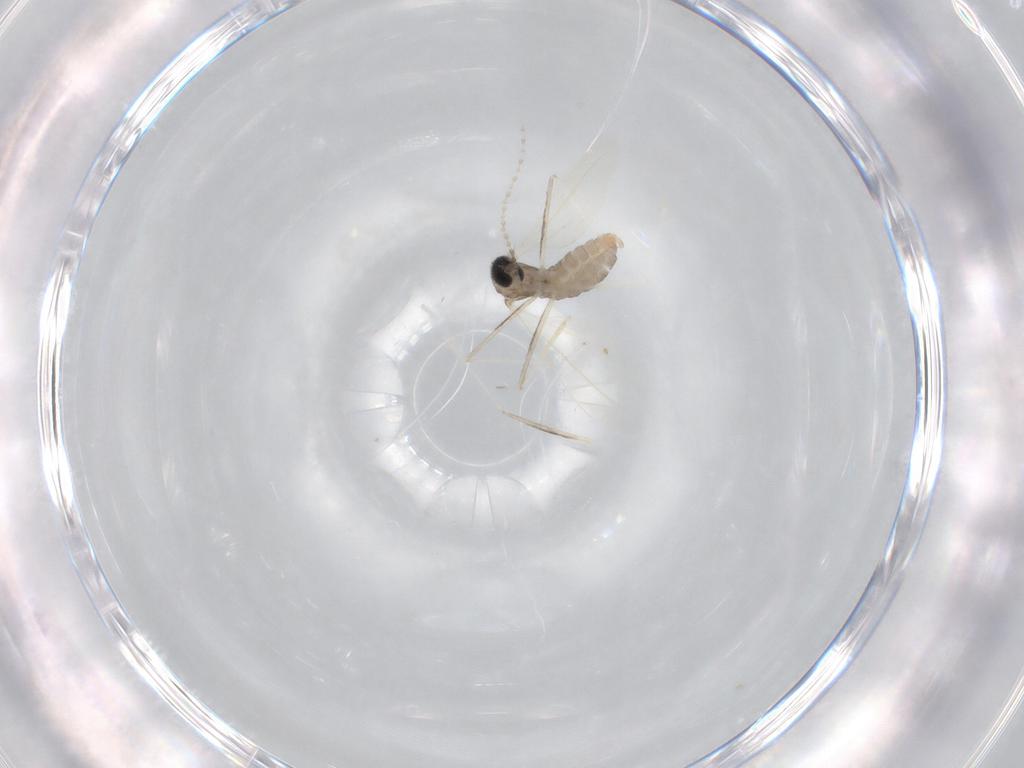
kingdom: Animalia
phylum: Arthropoda
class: Insecta
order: Diptera
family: Cecidomyiidae
